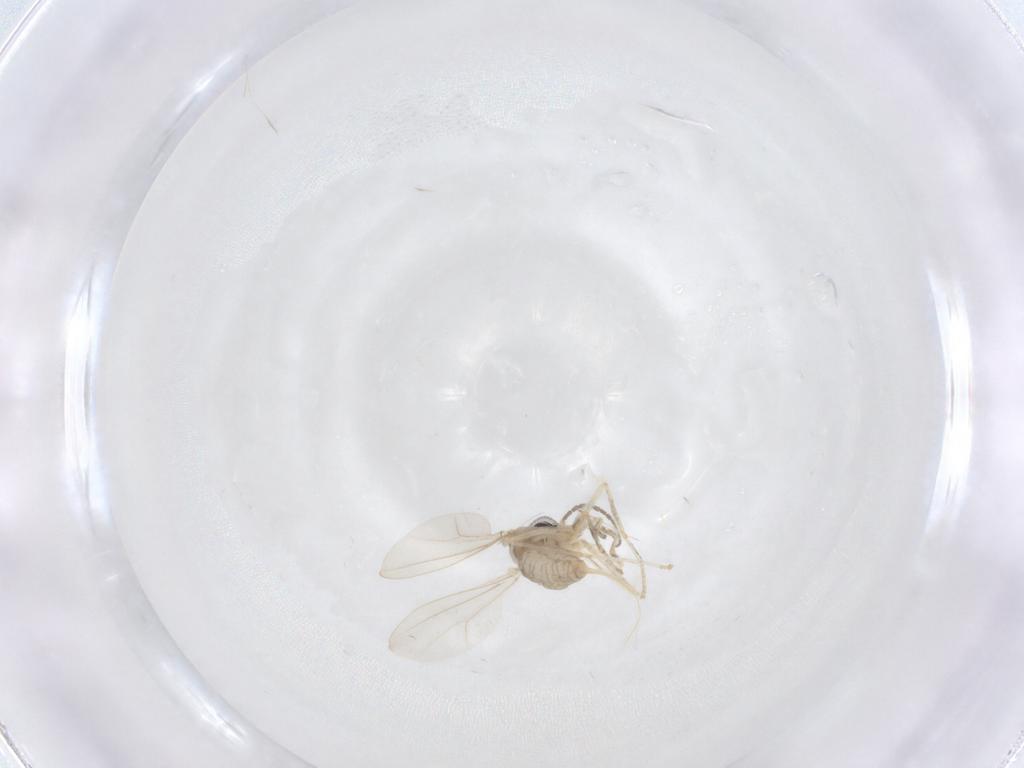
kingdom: Animalia
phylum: Arthropoda
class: Insecta
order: Diptera
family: Cecidomyiidae
